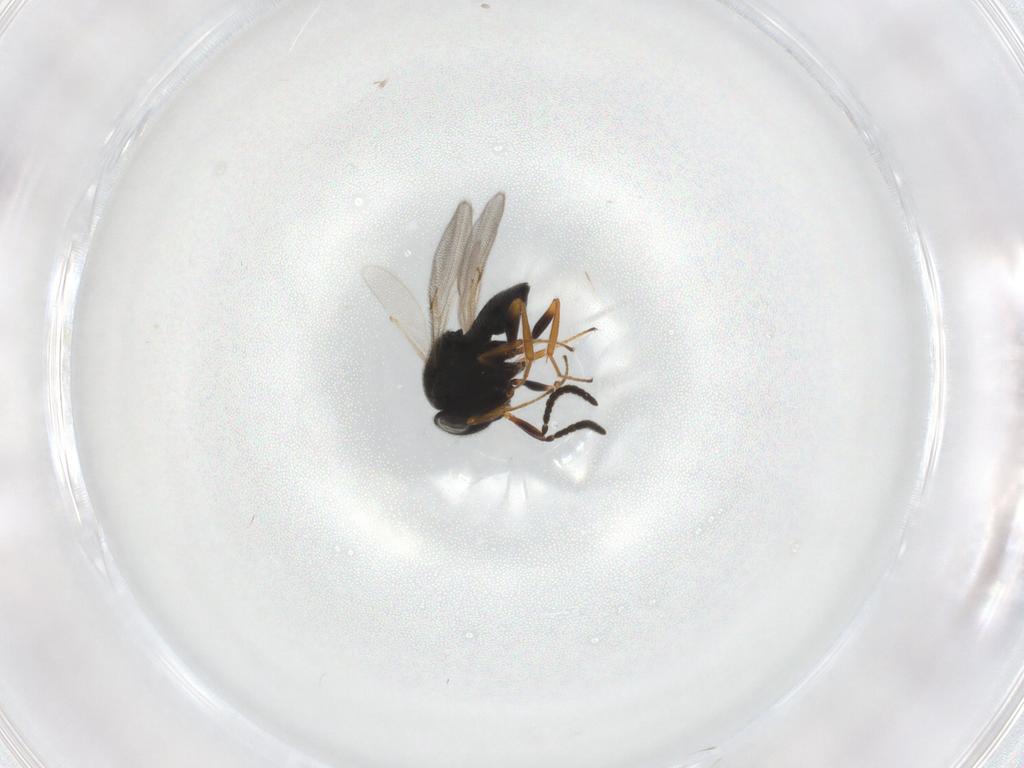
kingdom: Animalia
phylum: Arthropoda
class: Insecta
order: Hymenoptera
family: Scelionidae
